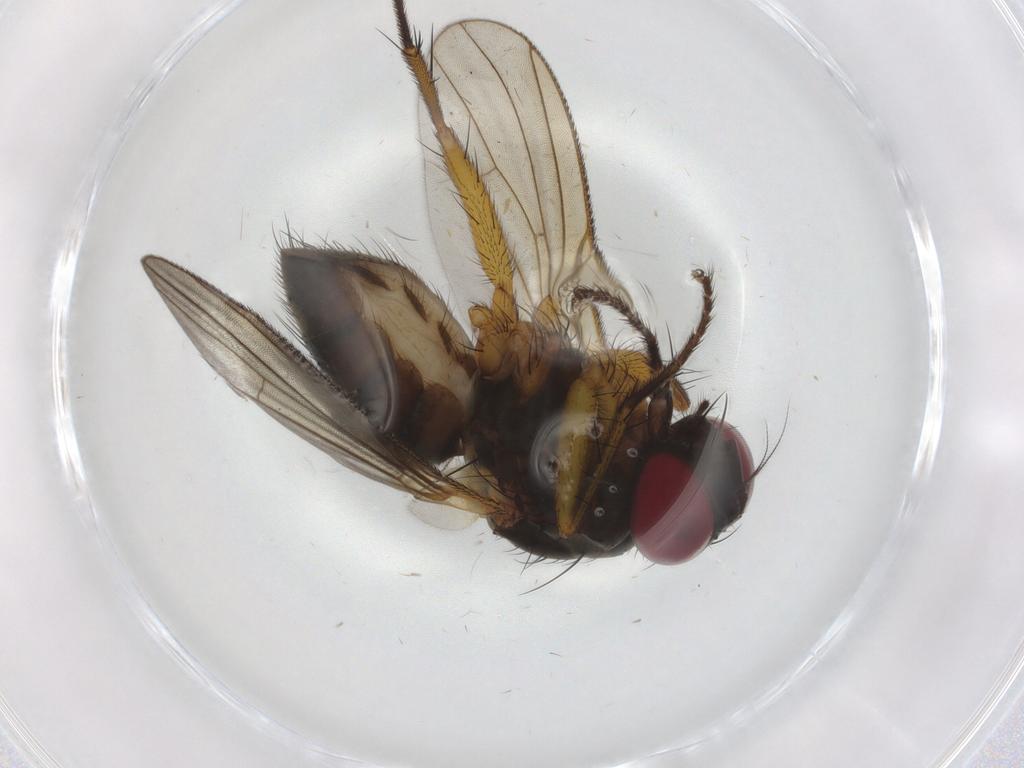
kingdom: Animalia
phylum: Arthropoda
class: Insecta
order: Diptera
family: Muscidae
